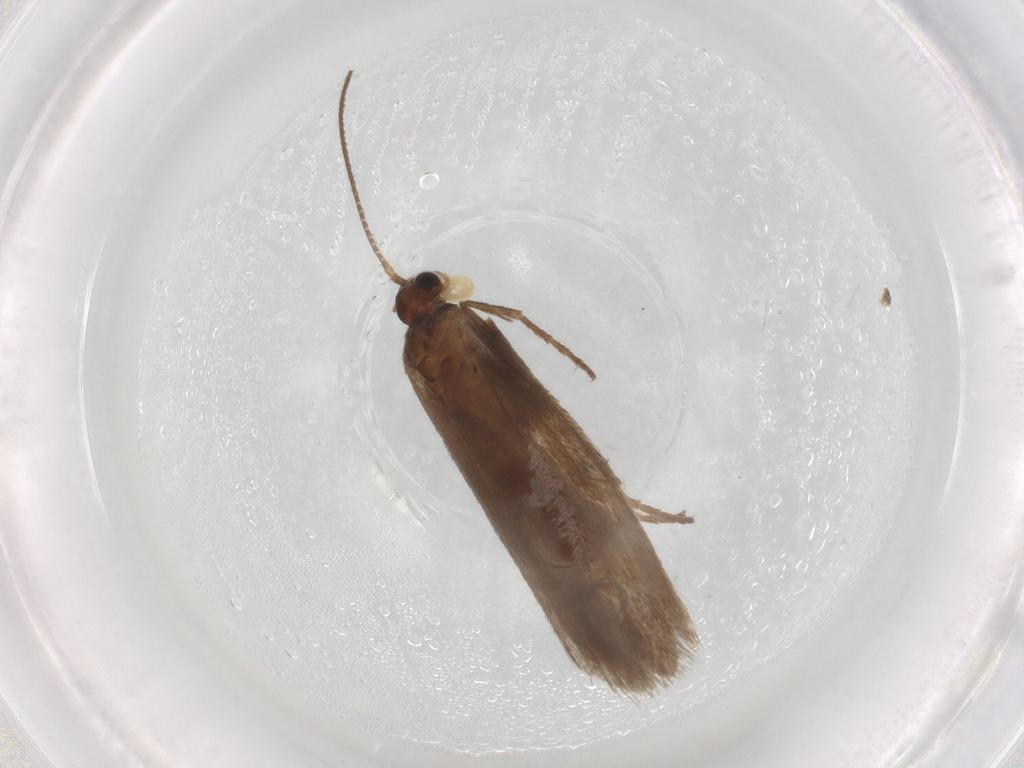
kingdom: Animalia
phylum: Arthropoda
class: Insecta
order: Lepidoptera
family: Limacodidae
